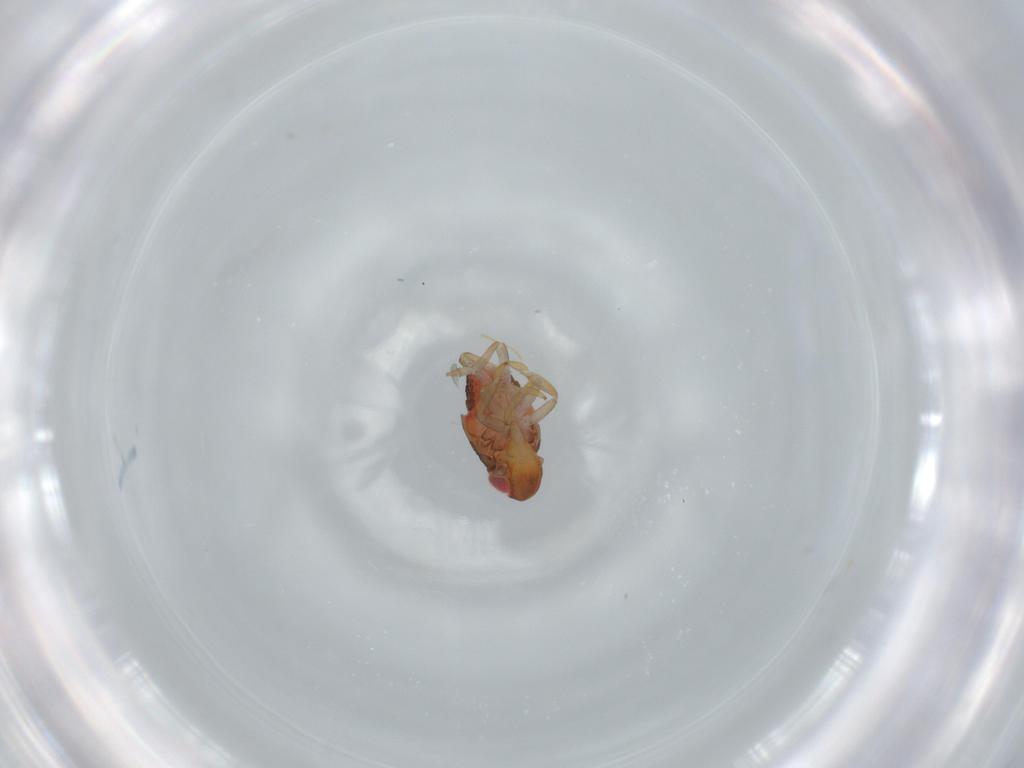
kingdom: Animalia
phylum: Arthropoda
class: Insecta
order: Hemiptera
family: Issidae
